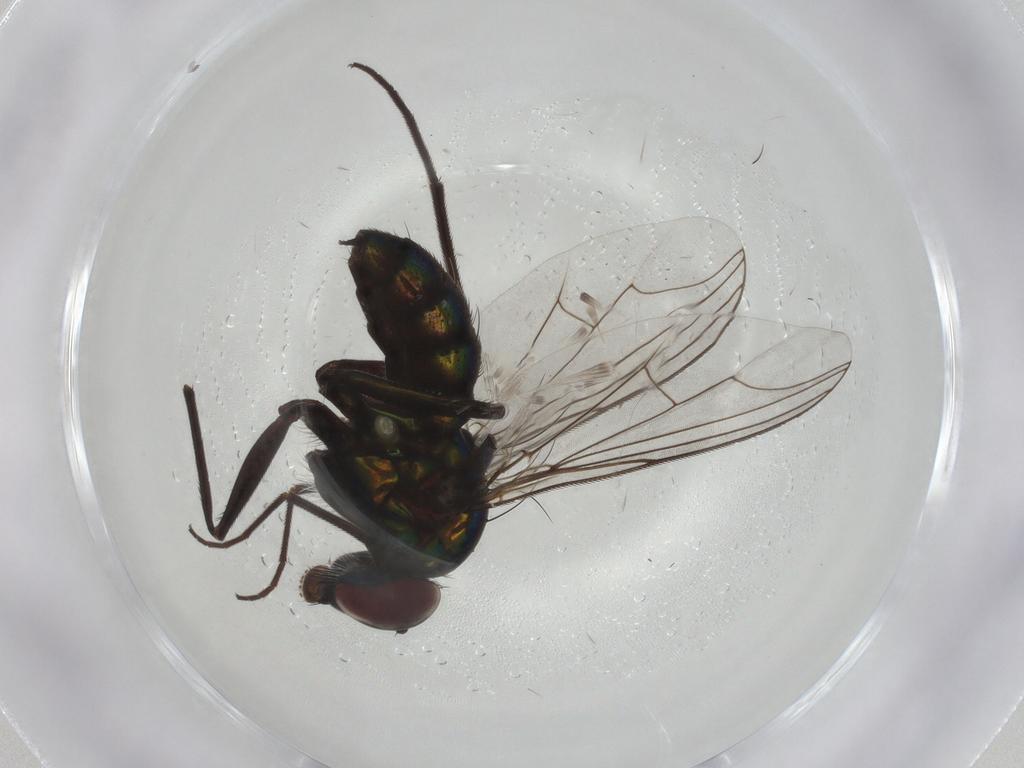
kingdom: Animalia
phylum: Arthropoda
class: Insecta
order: Diptera
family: Dolichopodidae
